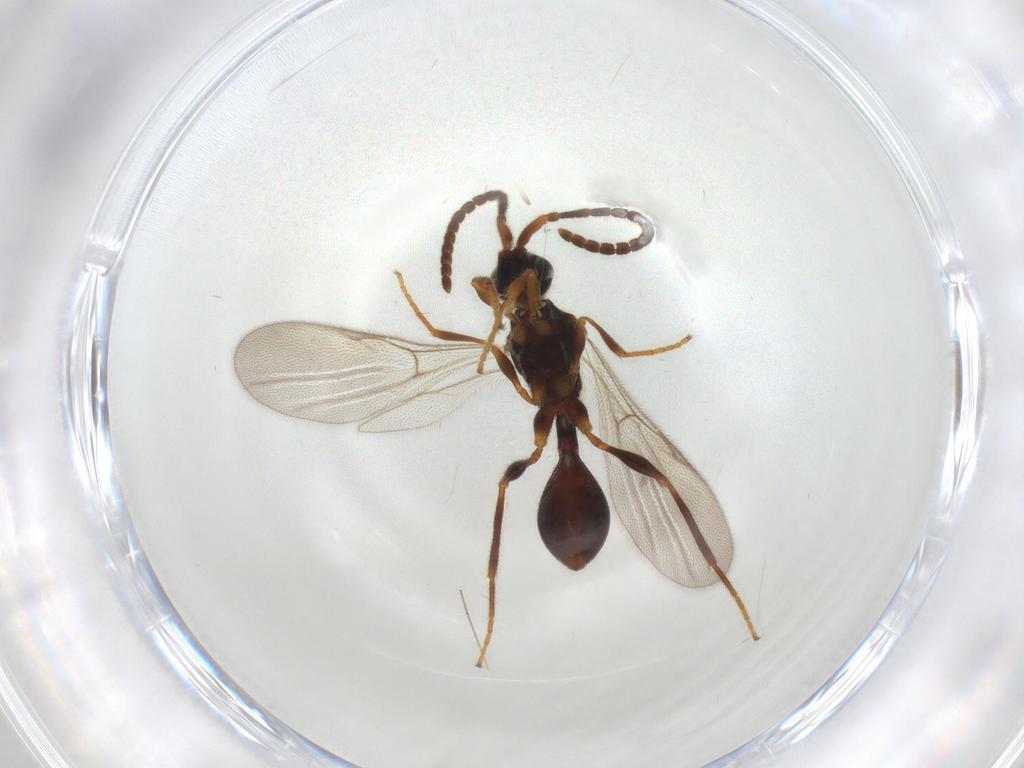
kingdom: Animalia
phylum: Arthropoda
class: Insecta
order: Hymenoptera
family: Diapriidae
